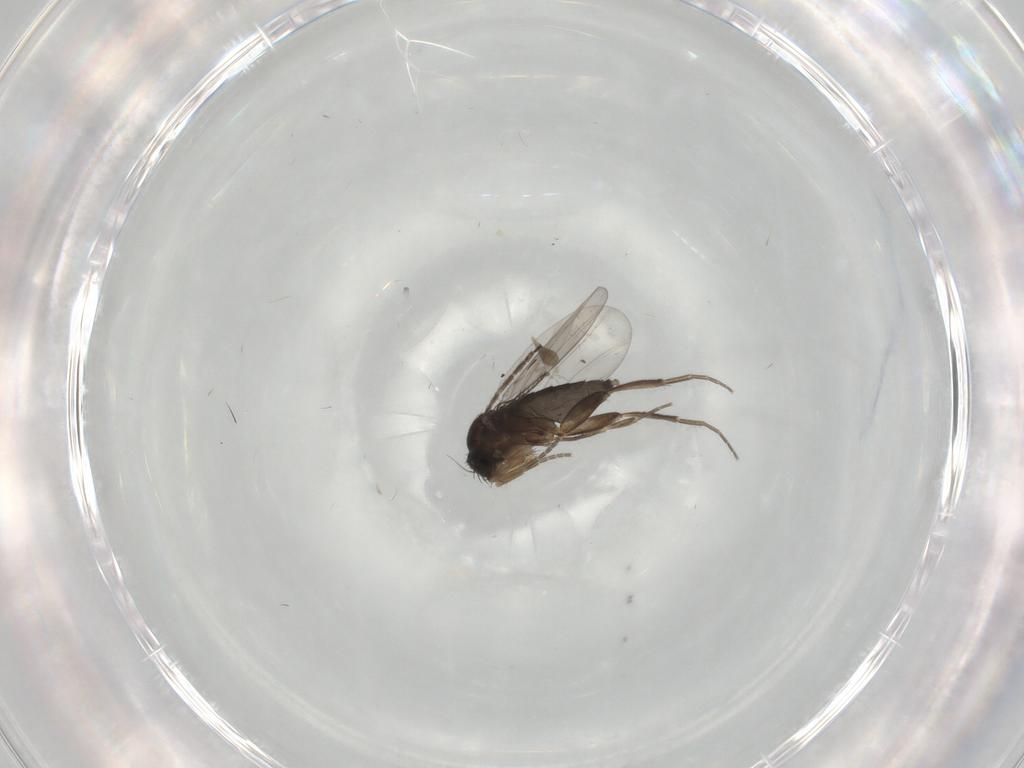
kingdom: Animalia
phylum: Arthropoda
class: Insecta
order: Diptera
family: Phoridae
